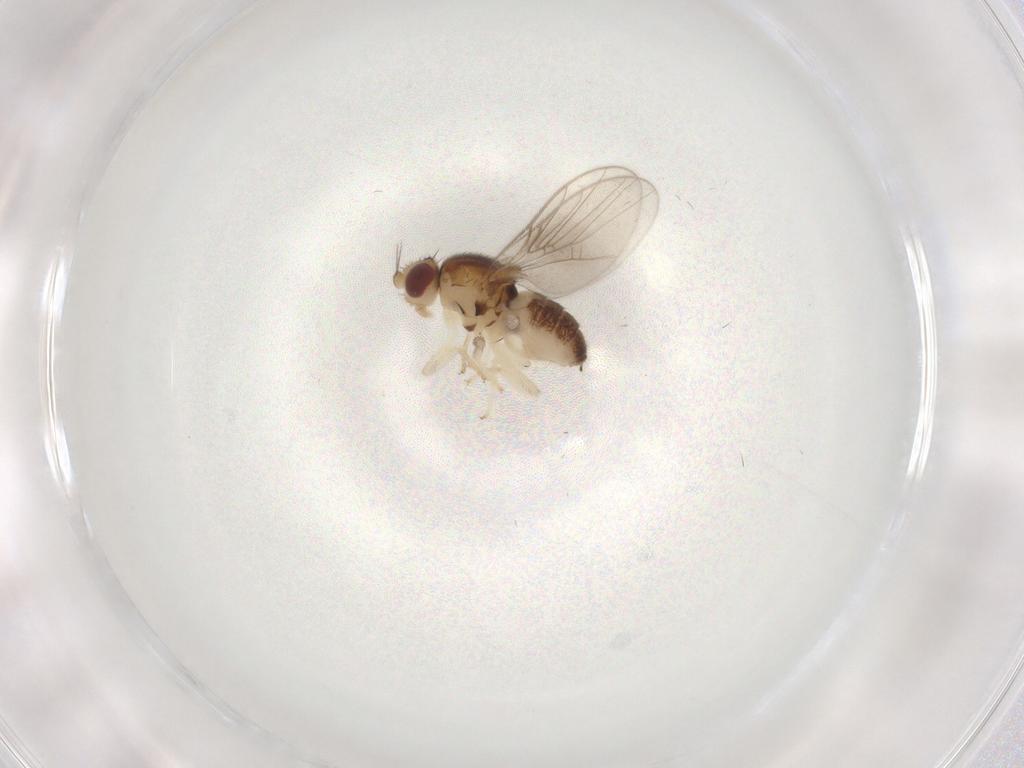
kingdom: Animalia
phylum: Arthropoda
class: Insecta
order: Diptera
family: Chloropidae
